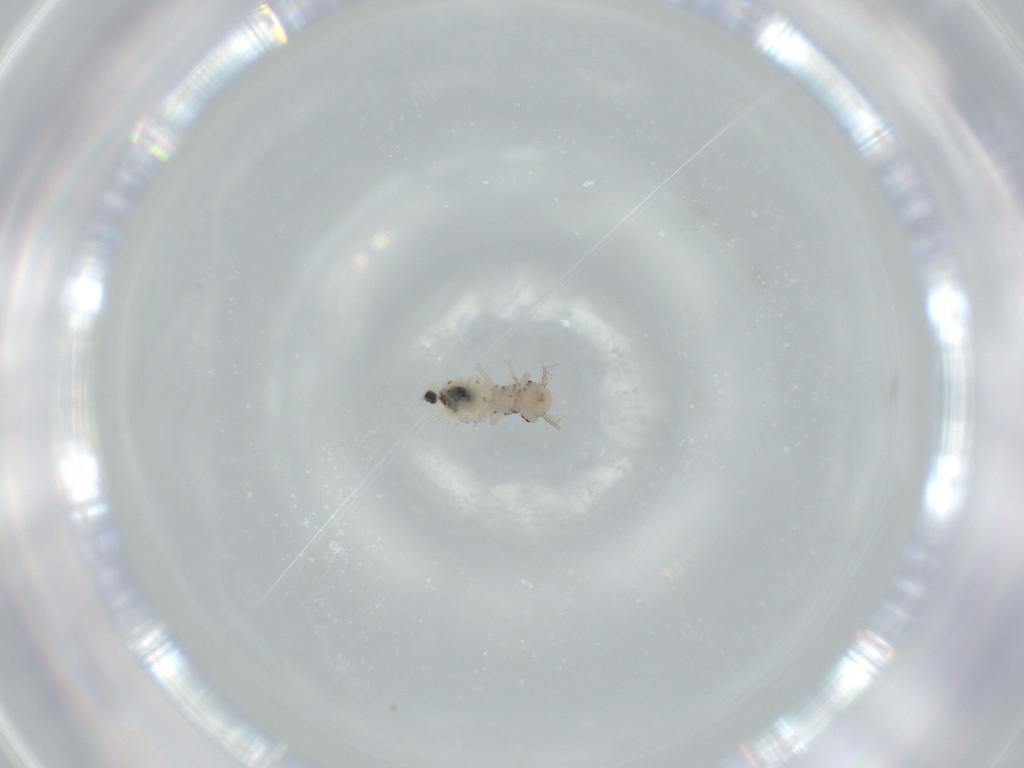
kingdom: Animalia
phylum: Arthropoda
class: Insecta
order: Psocodea
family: Pseudocaeciliidae
